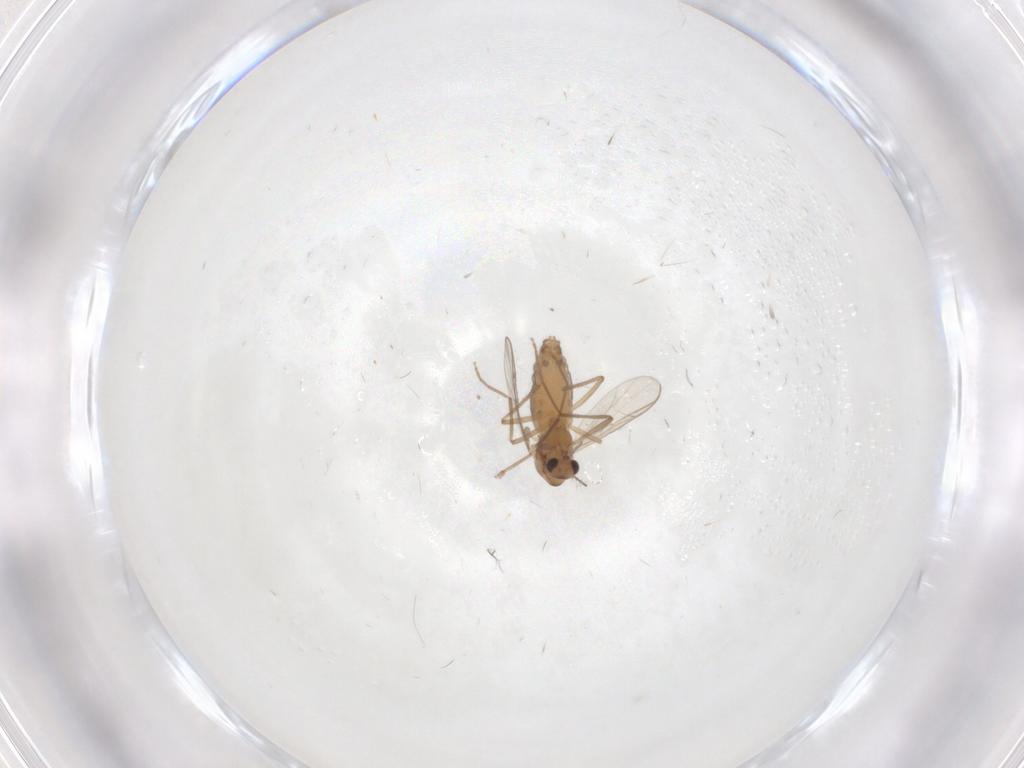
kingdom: Animalia
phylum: Arthropoda
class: Insecta
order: Diptera
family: Chironomidae
